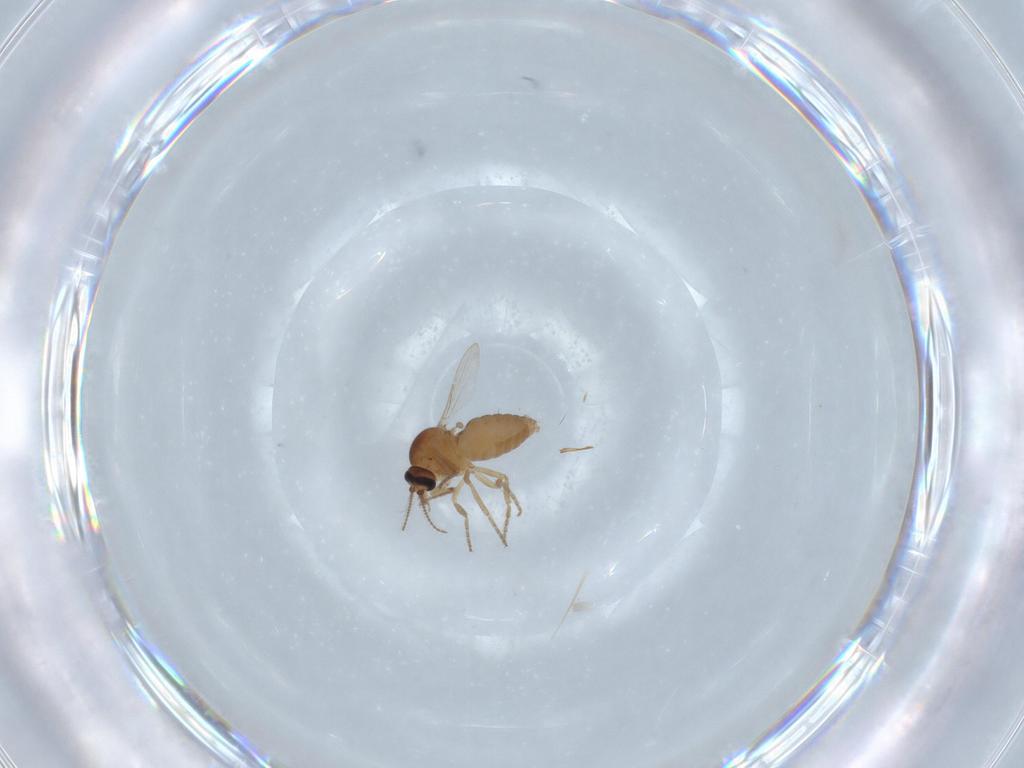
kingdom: Animalia
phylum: Arthropoda
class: Insecta
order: Diptera
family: Ceratopogonidae
